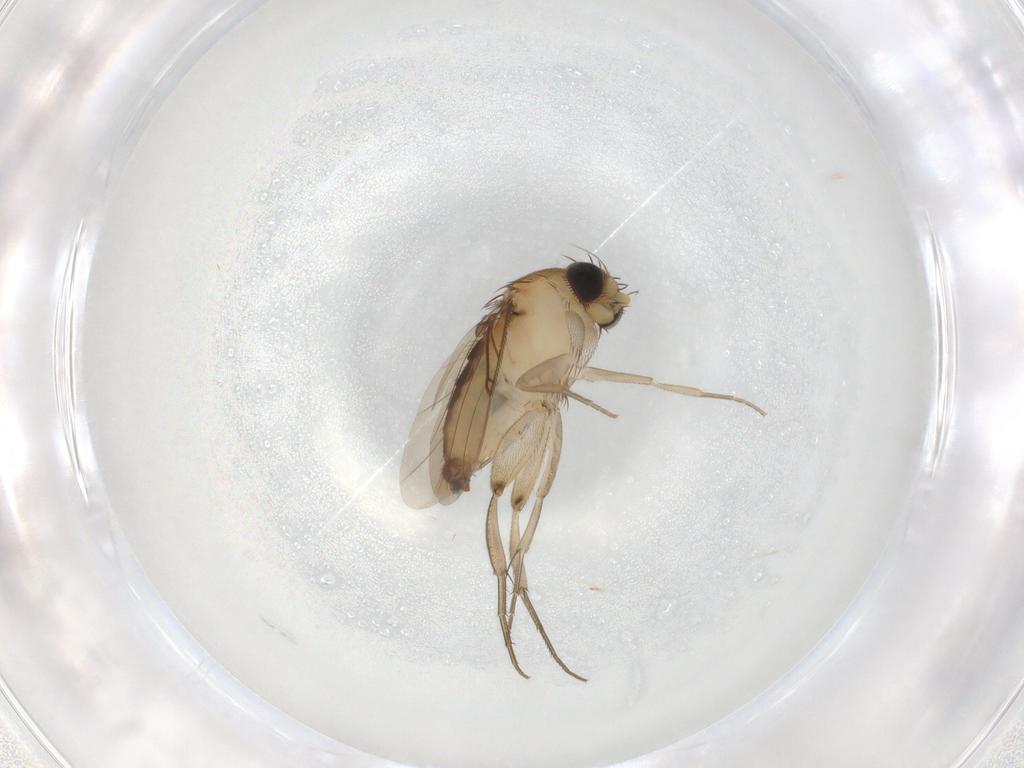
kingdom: Animalia
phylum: Arthropoda
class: Insecta
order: Diptera
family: Phoridae
